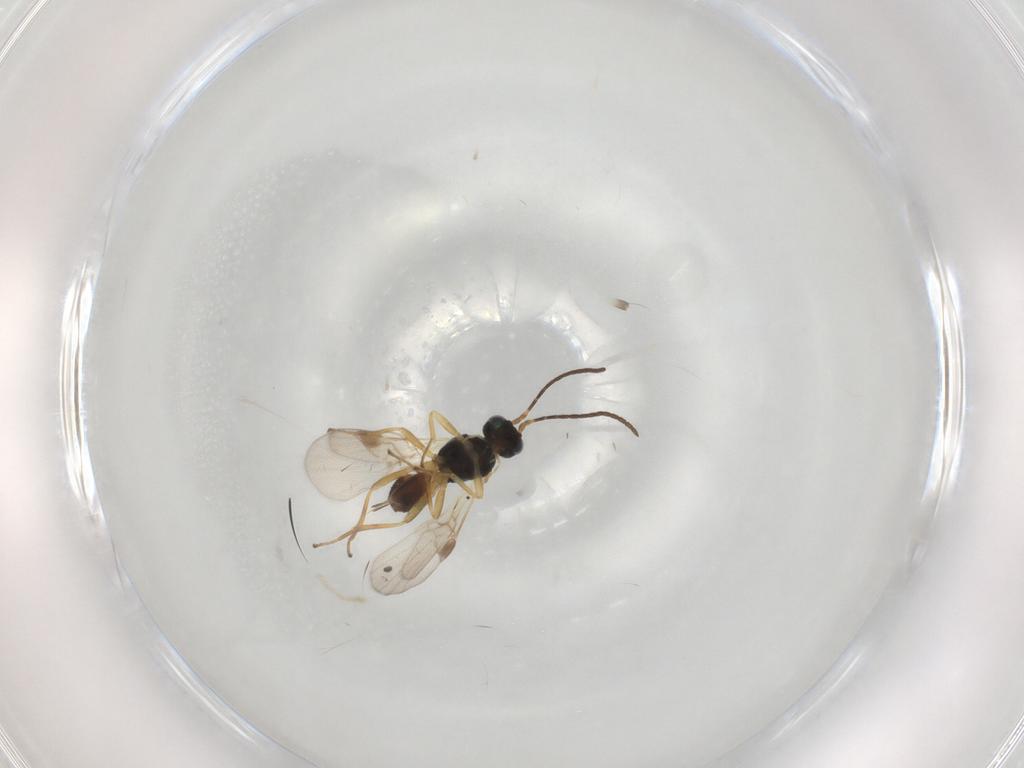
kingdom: Animalia
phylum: Arthropoda
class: Insecta
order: Hymenoptera
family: Braconidae
